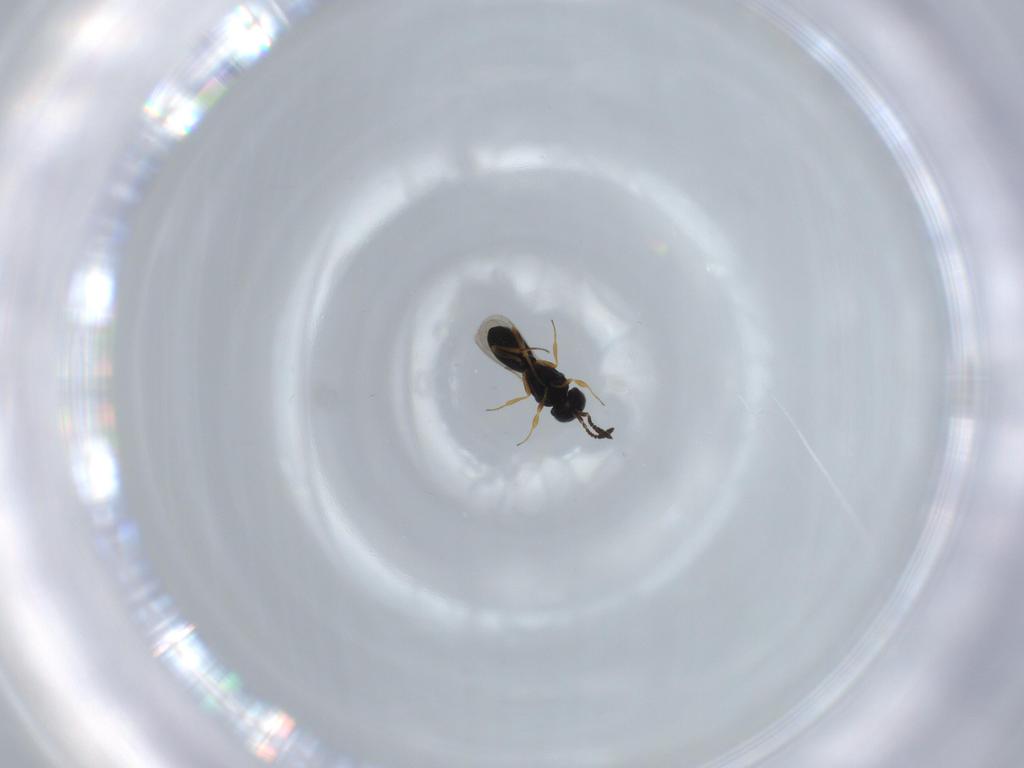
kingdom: Animalia
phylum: Arthropoda
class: Insecta
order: Hymenoptera
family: Scelionidae
